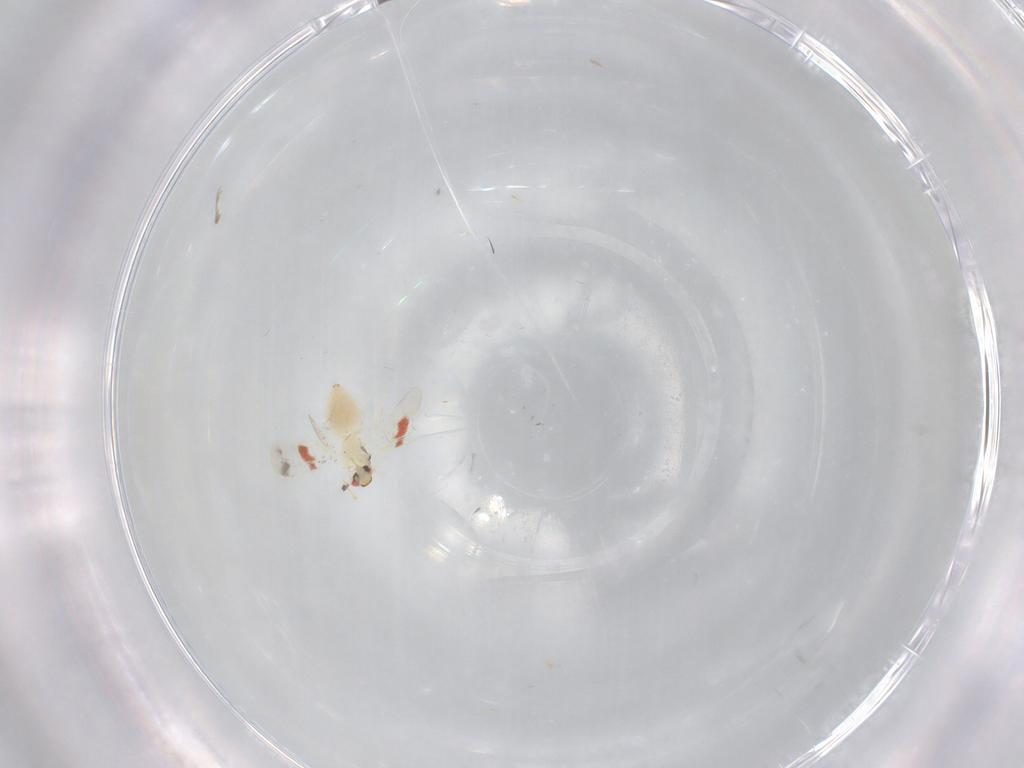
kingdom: Animalia
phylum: Arthropoda
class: Insecta
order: Hemiptera
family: Aleyrodidae
